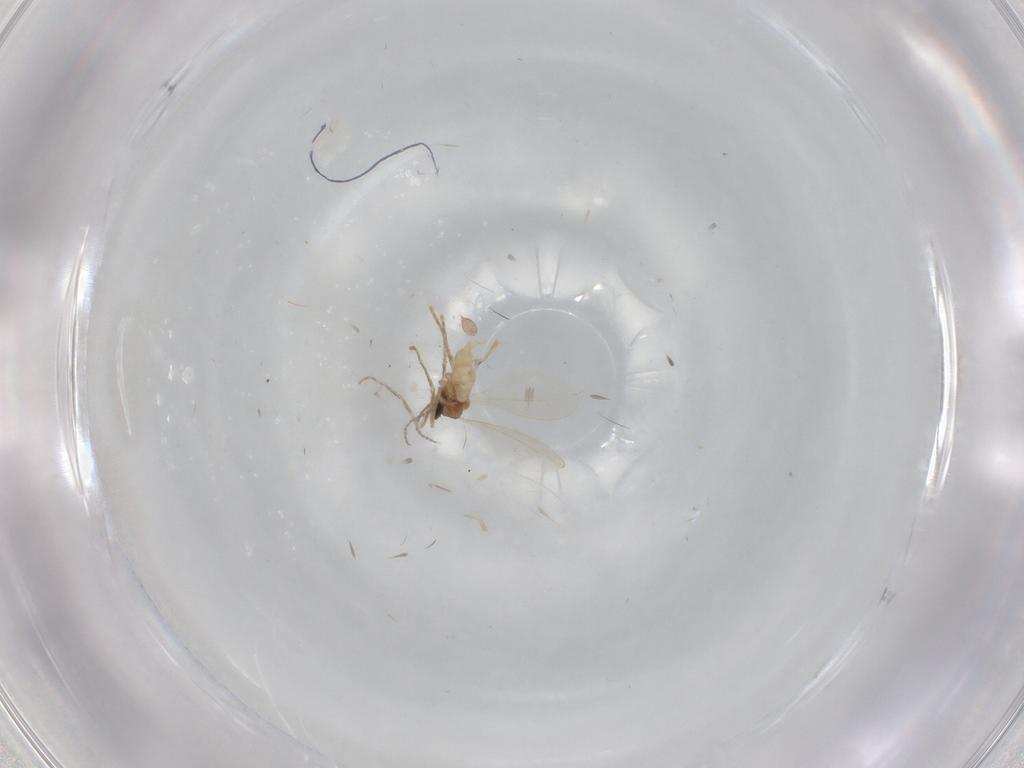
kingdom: Animalia
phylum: Arthropoda
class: Insecta
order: Diptera
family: Cecidomyiidae
